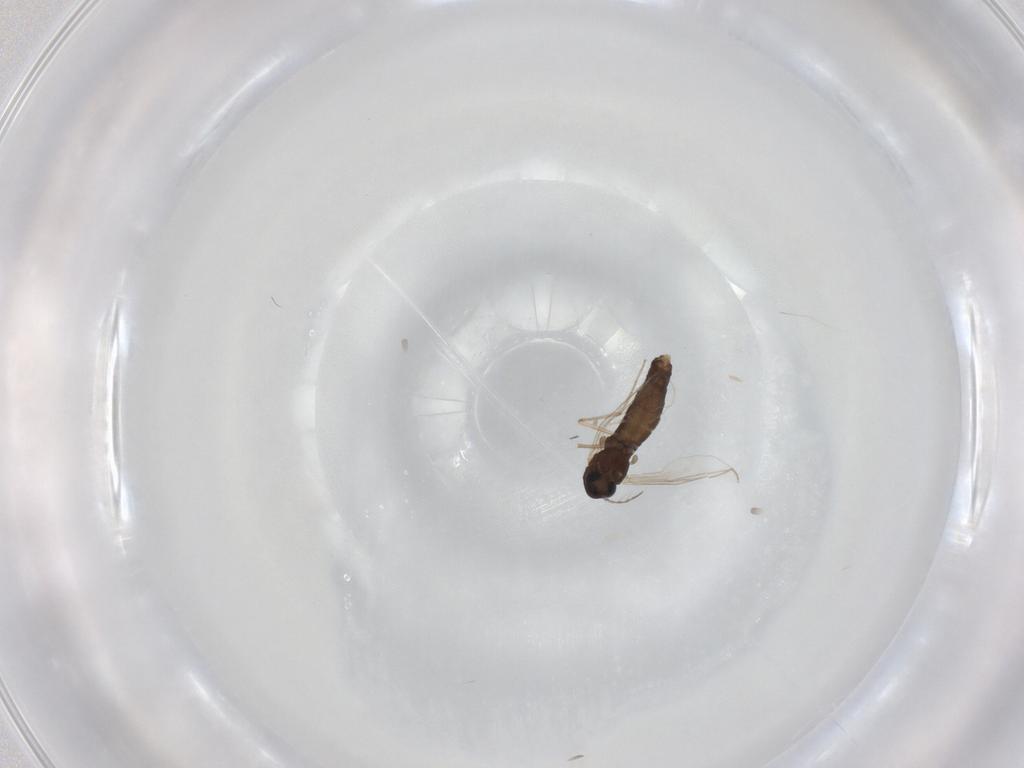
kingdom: Animalia
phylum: Arthropoda
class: Insecta
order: Diptera
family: Chironomidae
